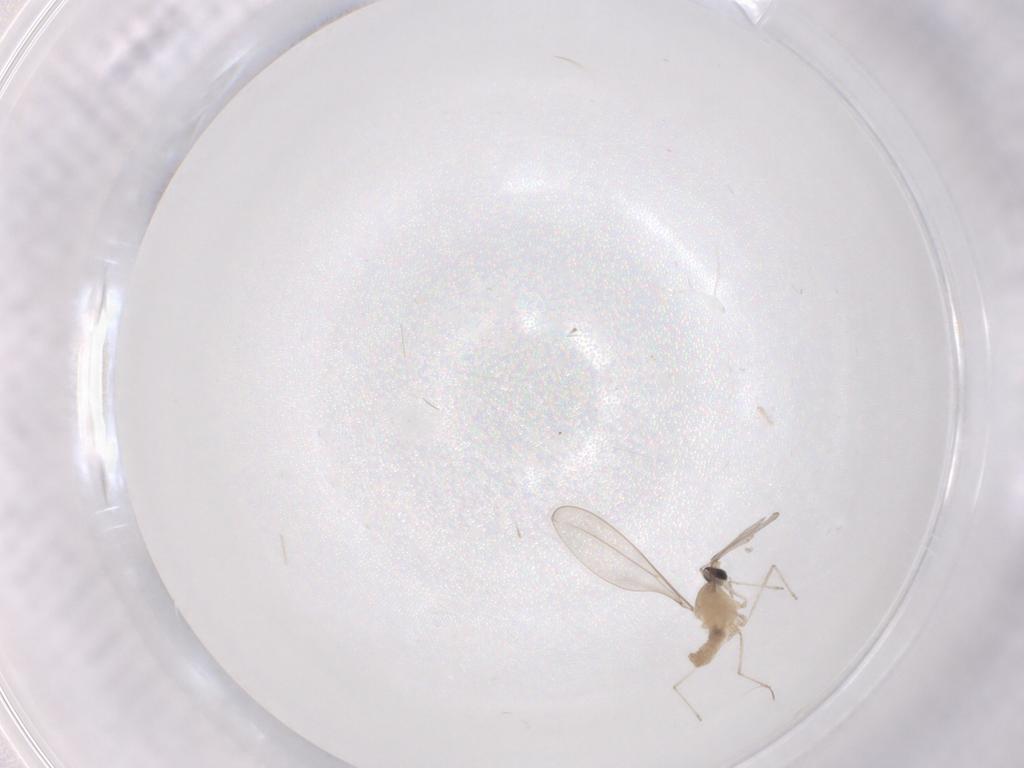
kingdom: Animalia
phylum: Arthropoda
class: Insecta
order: Diptera
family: Cecidomyiidae
